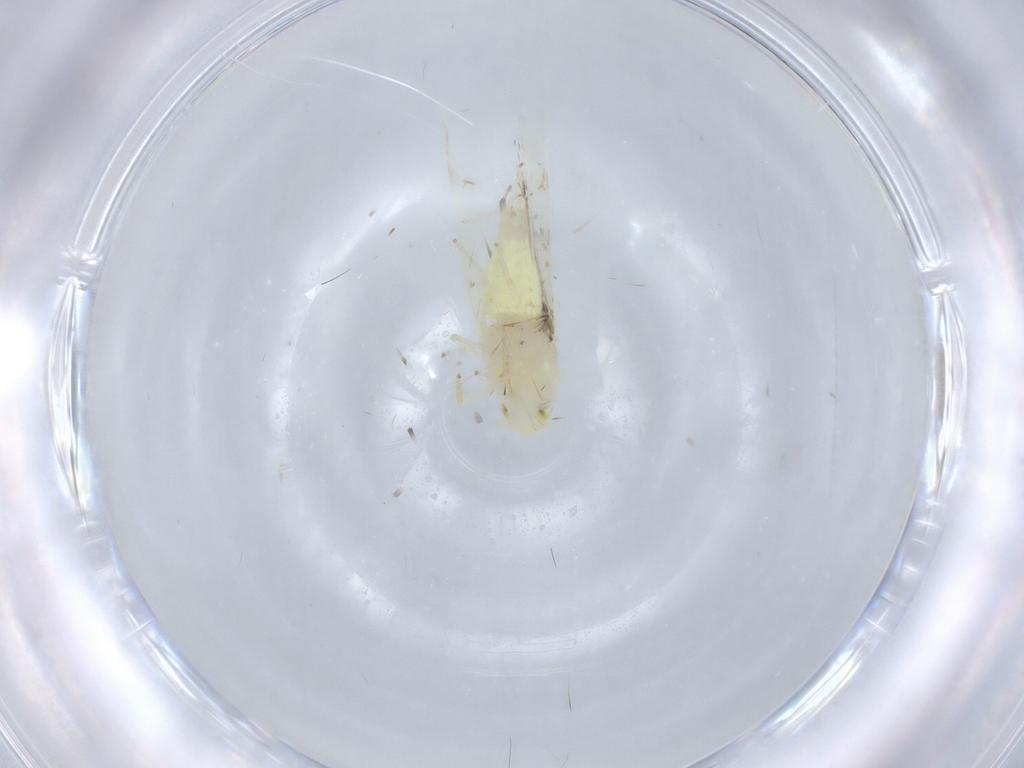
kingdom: Animalia
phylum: Arthropoda
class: Insecta
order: Hemiptera
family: Cicadellidae
